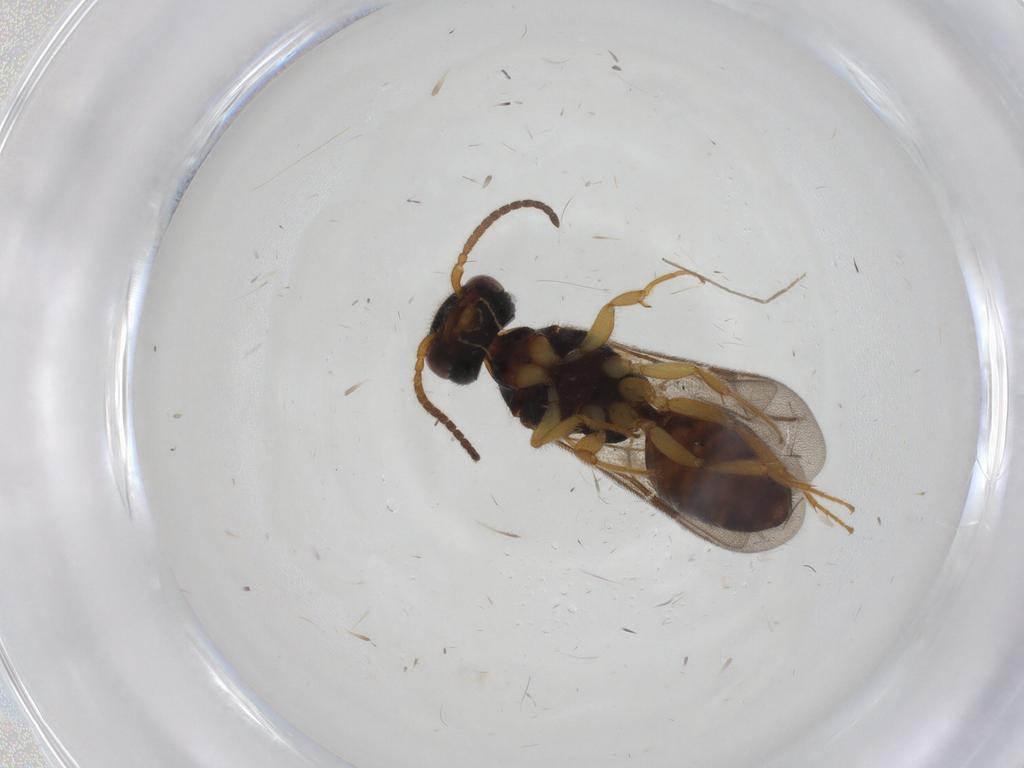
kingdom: Animalia
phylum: Arthropoda
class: Insecta
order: Hymenoptera
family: Bethylidae
